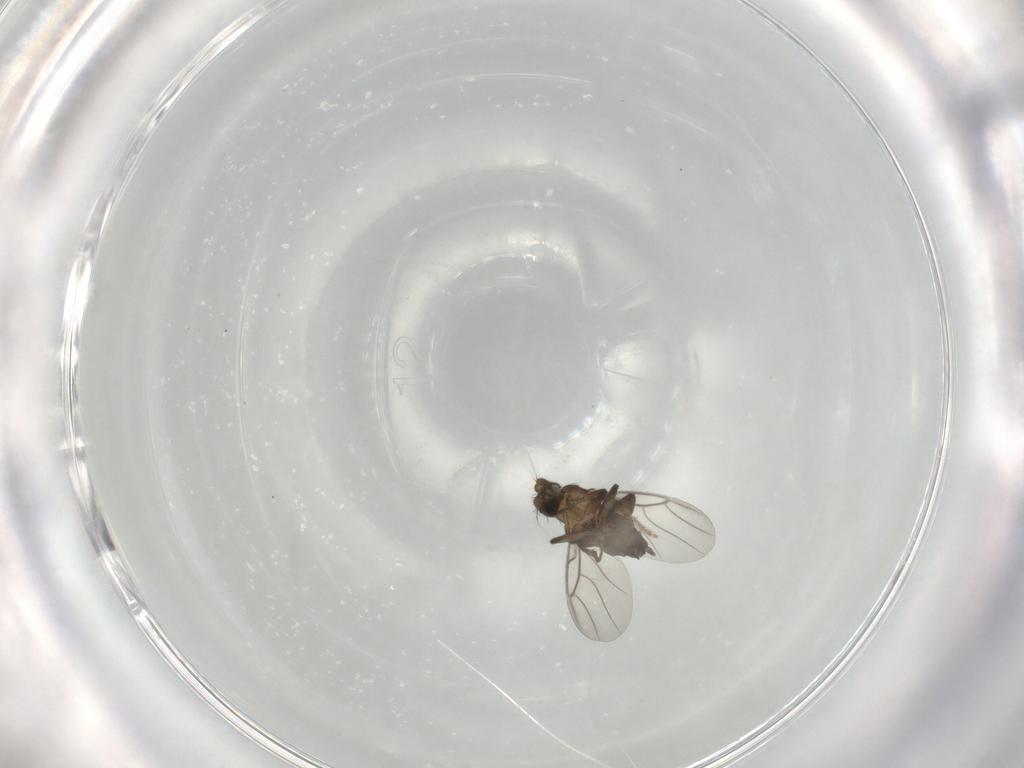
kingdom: Animalia
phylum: Arthropoda
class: Insecta
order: Diptera
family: Phoridae
